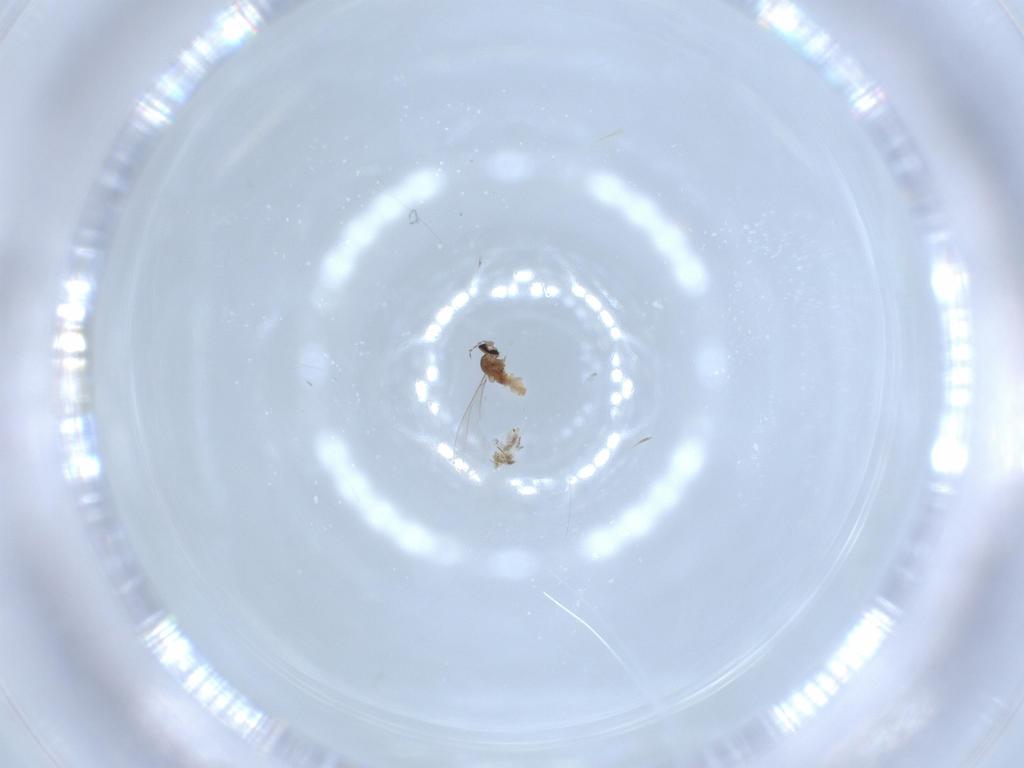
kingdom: Animalia
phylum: Arthropoda
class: Insecta
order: Diptera
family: Cecidomyiidae
